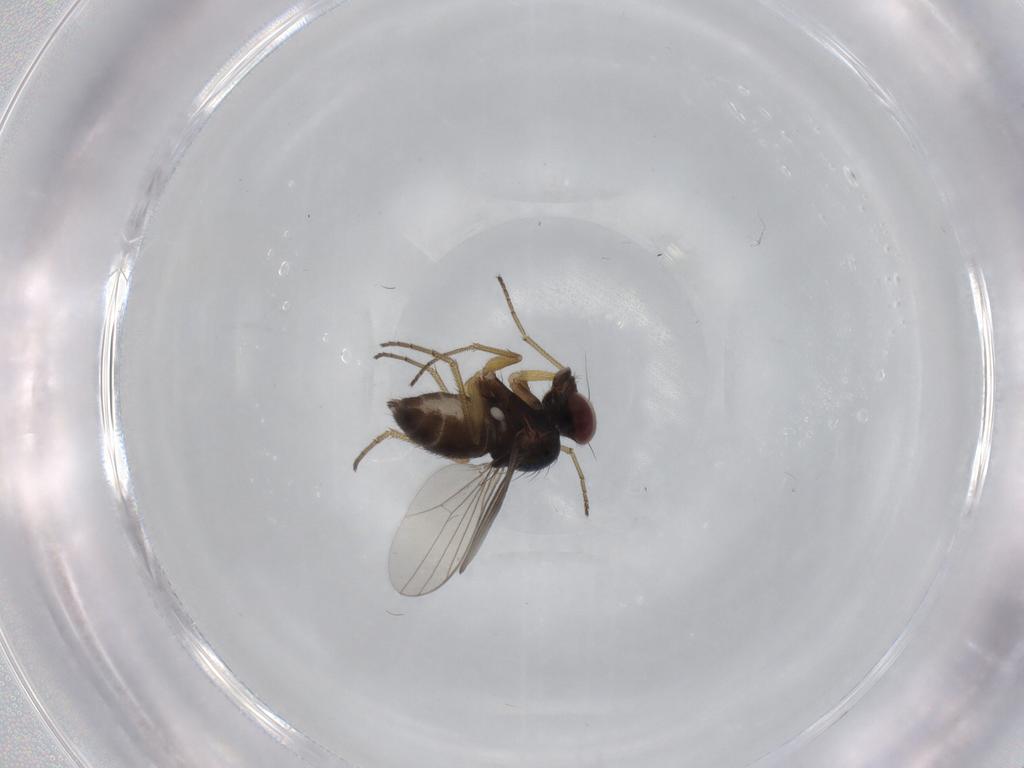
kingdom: Animalia
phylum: Arthropoda
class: Insecta
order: Diptera
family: Dolichopodidae
